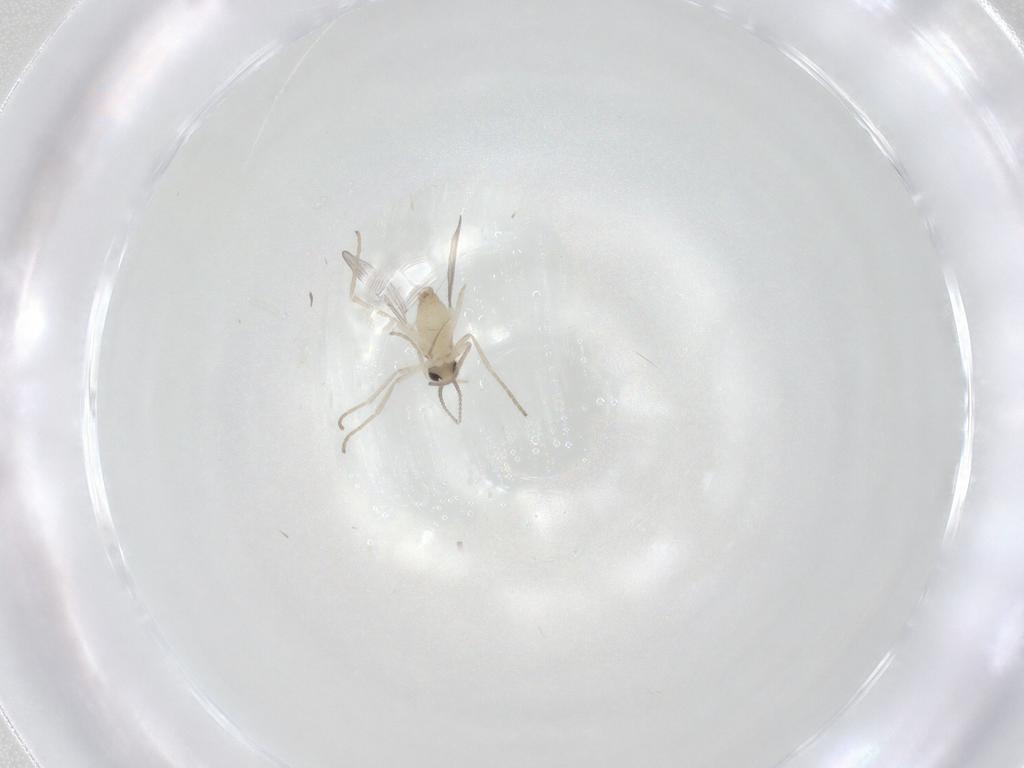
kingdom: Animalia
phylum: Arthropoda
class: Insecta
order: Diptera
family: Cecidomyiidae
